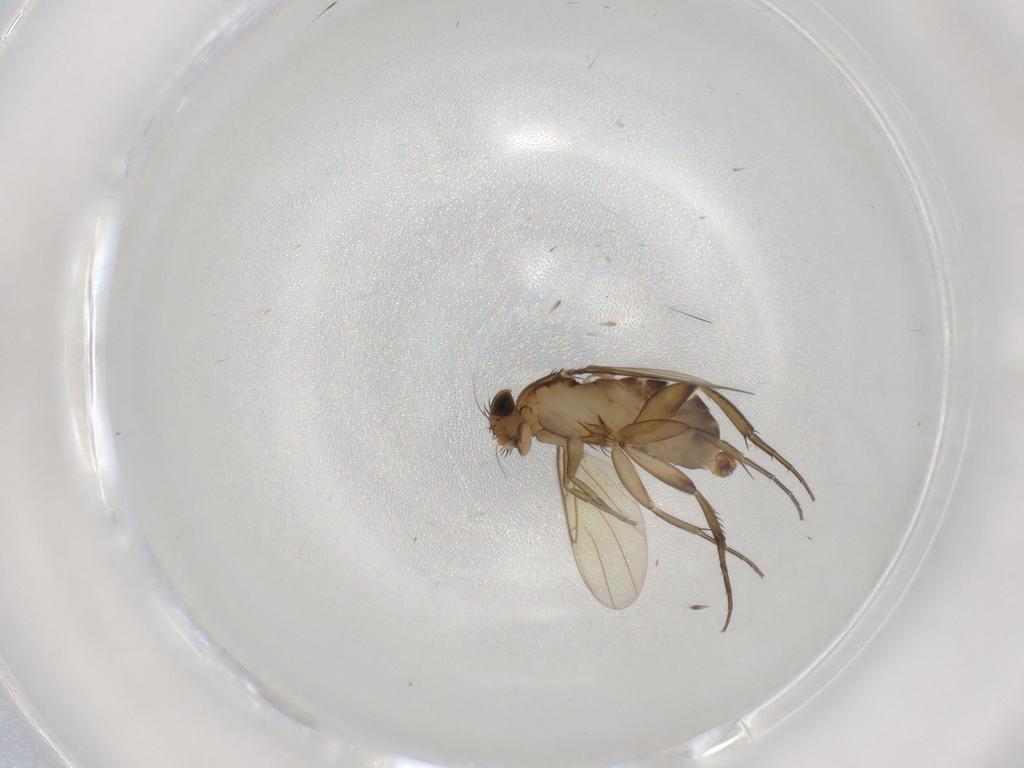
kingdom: Animalia
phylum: Arthropoda
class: Insecta
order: Diptera
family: Phoridae
